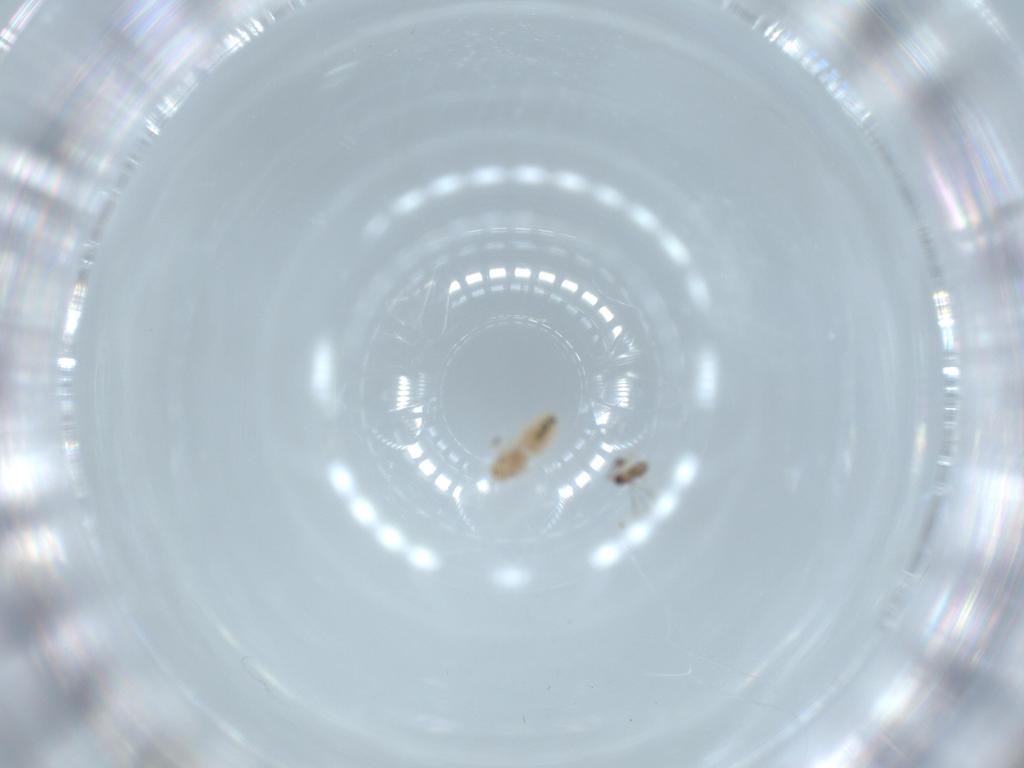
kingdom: Animalia
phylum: Arthropoda
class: Insecta
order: Psocodea
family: Liposcelididae
